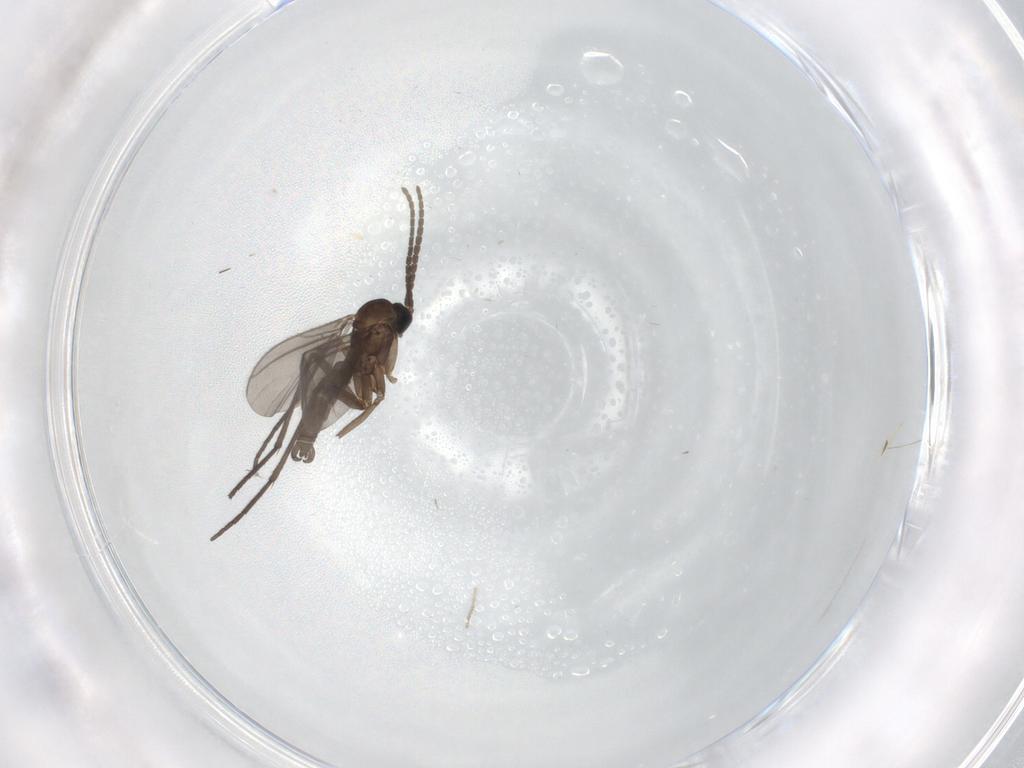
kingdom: Animalia
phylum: Arthropoda
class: Insecta
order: Diptera
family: Sciaridae
